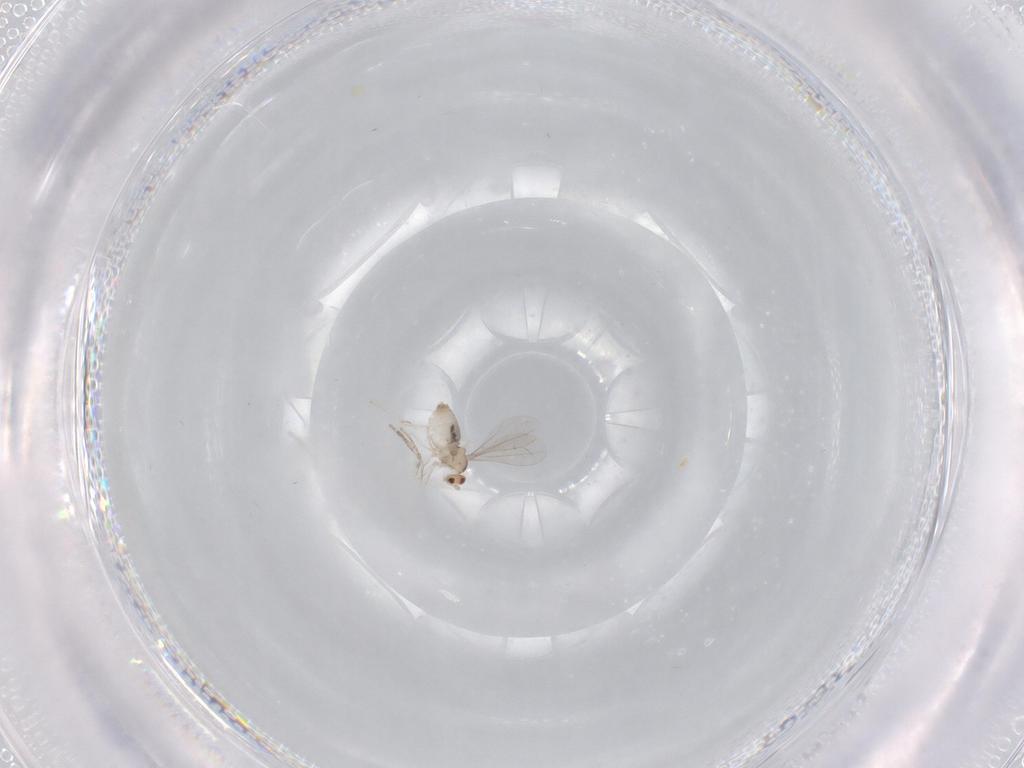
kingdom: Animalia
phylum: Arthropoda
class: Insecta
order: Diptera
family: Cecidomyiidae
